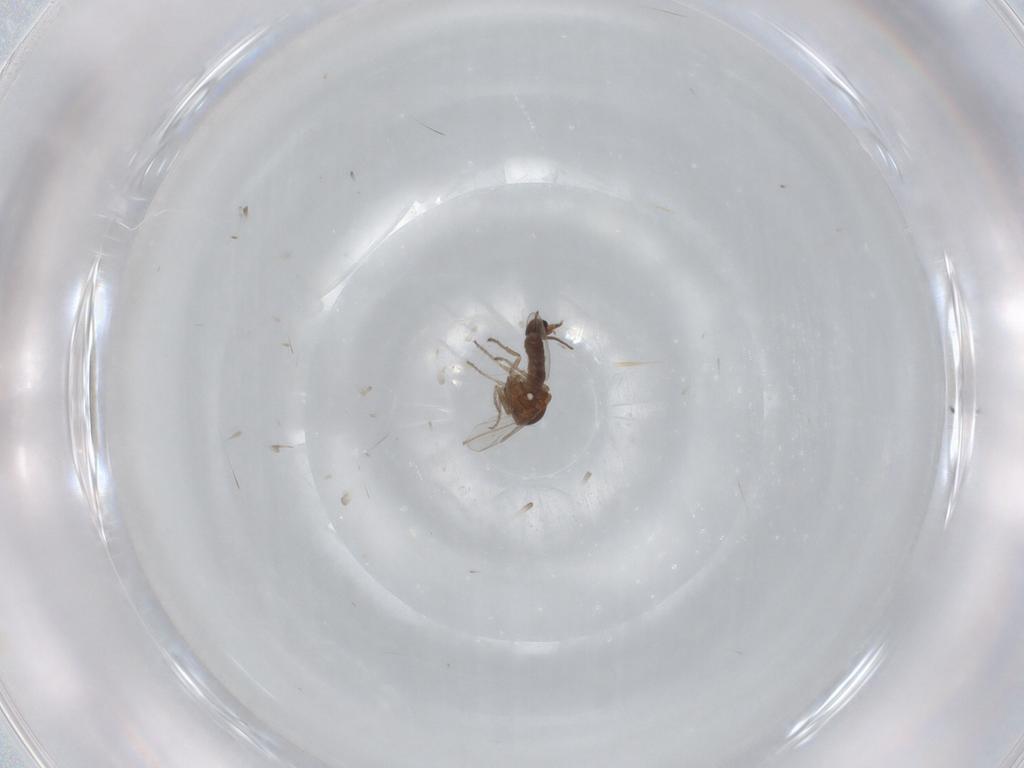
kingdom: Animalia
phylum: Arthropoda
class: Insecta
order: Diptera
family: Ceratopogonidae
